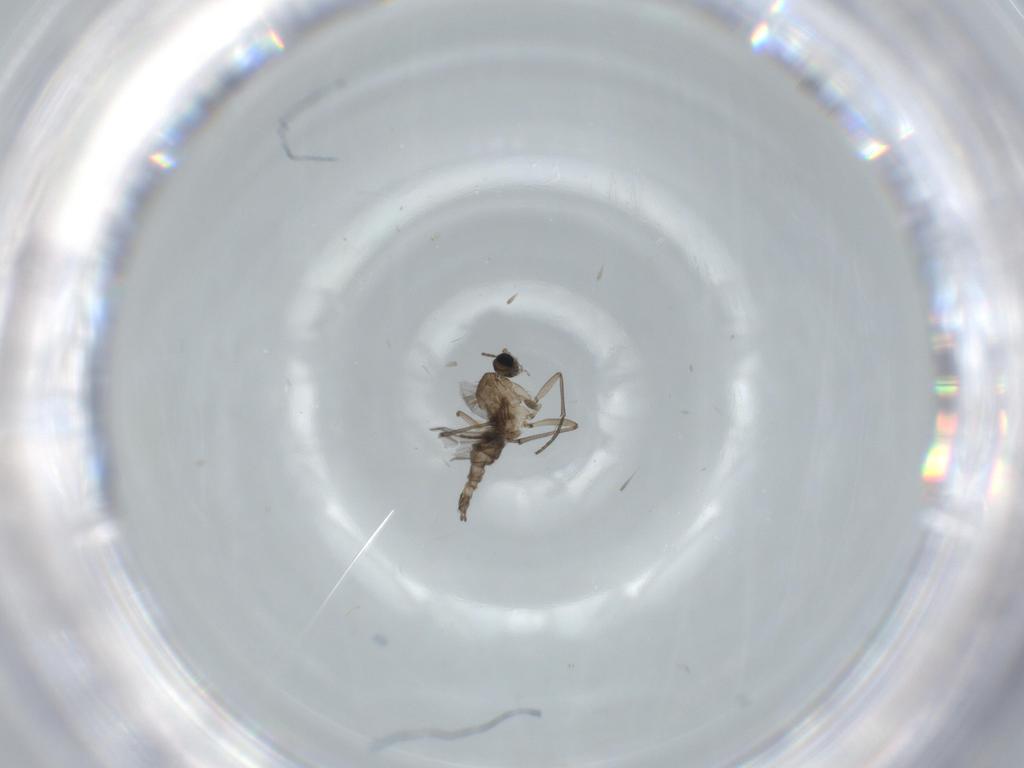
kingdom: Animalia
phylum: Arthropoda
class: Insecta
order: Diptera
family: Sciaridae
